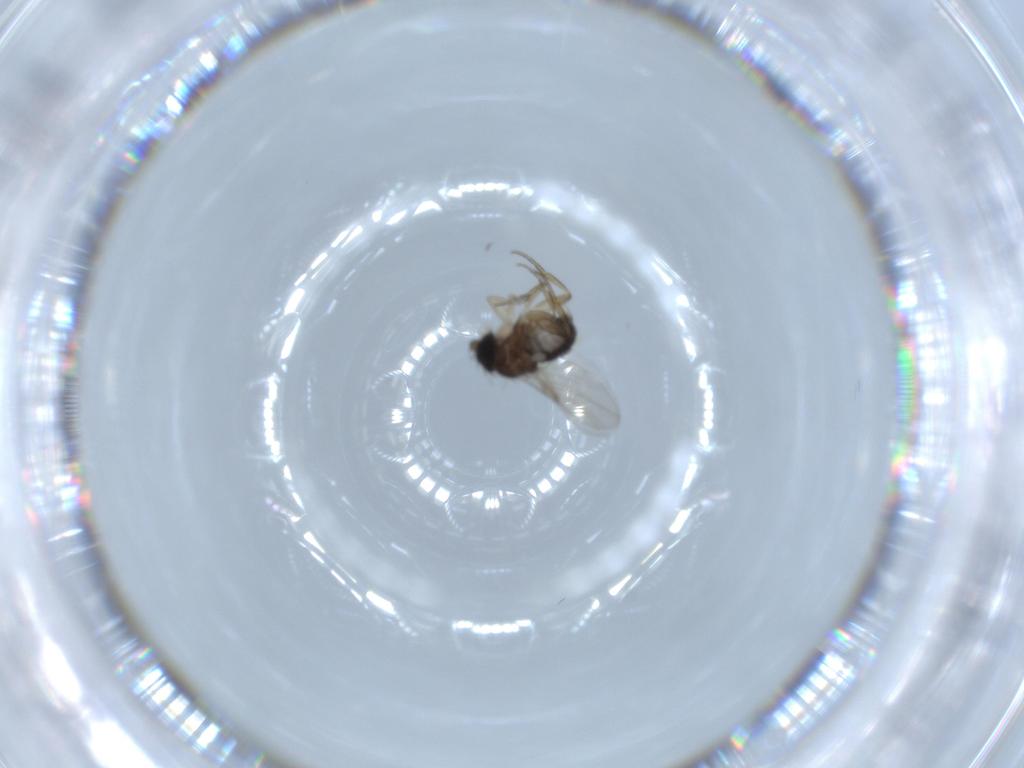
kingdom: Animalia
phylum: Arthropoda
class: Insecta
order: Diptera
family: Phoridae
